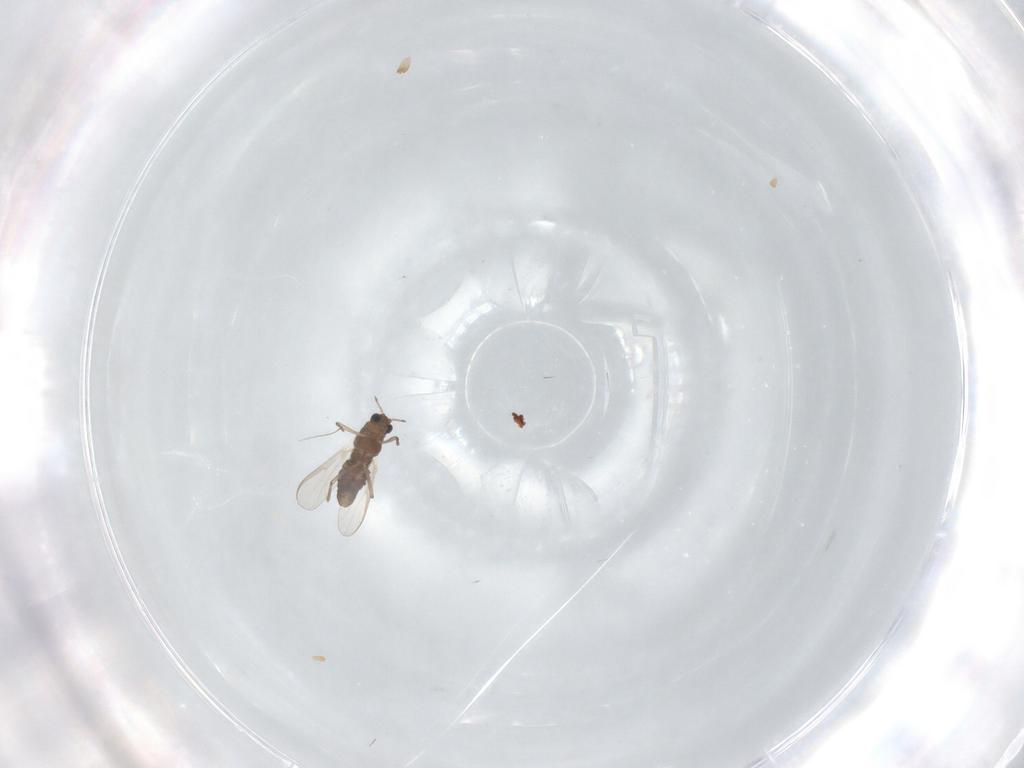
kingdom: Animalia
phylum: Arthropoda
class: Insecta
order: Diptera
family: Chironomidae
